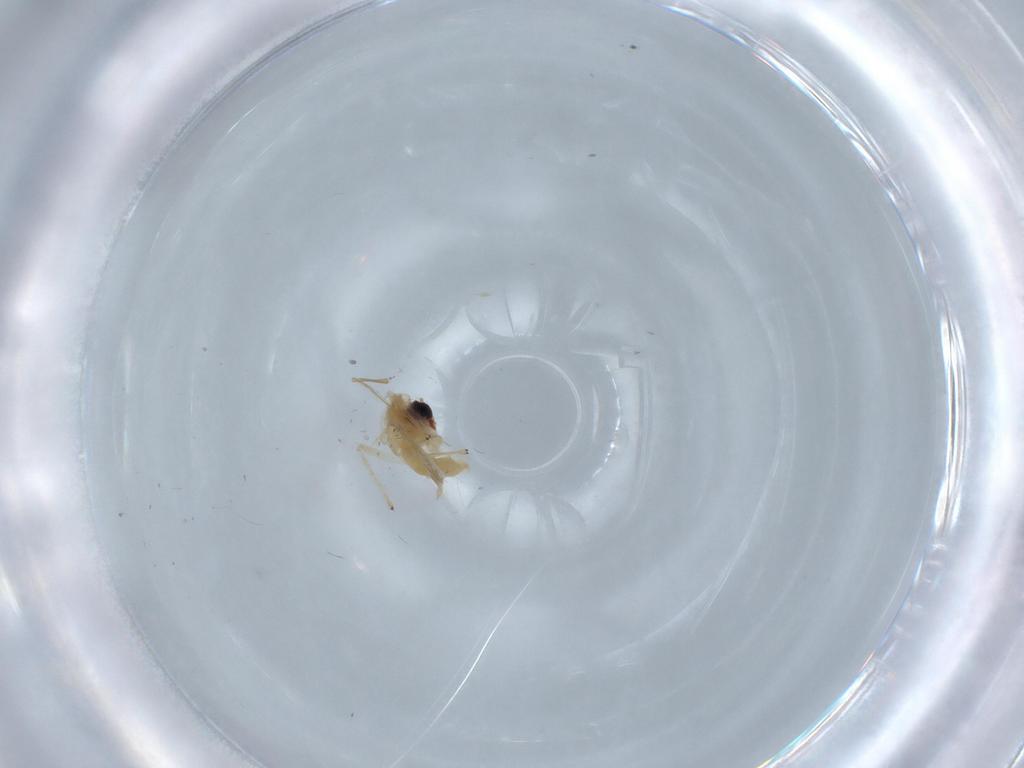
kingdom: Animalia
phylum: Arthropoda
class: Insecta
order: Diptera
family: Chironomidae
